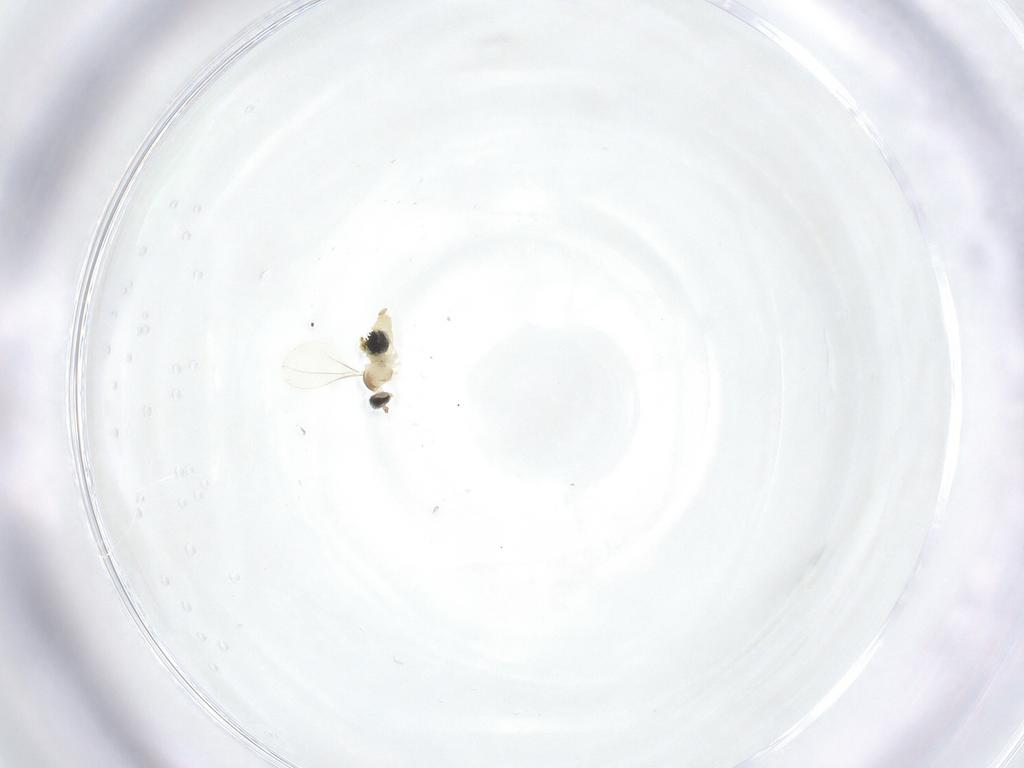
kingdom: Animalia
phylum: Arthropoda
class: Insecta
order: Diptera
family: Cecidomyiidae
